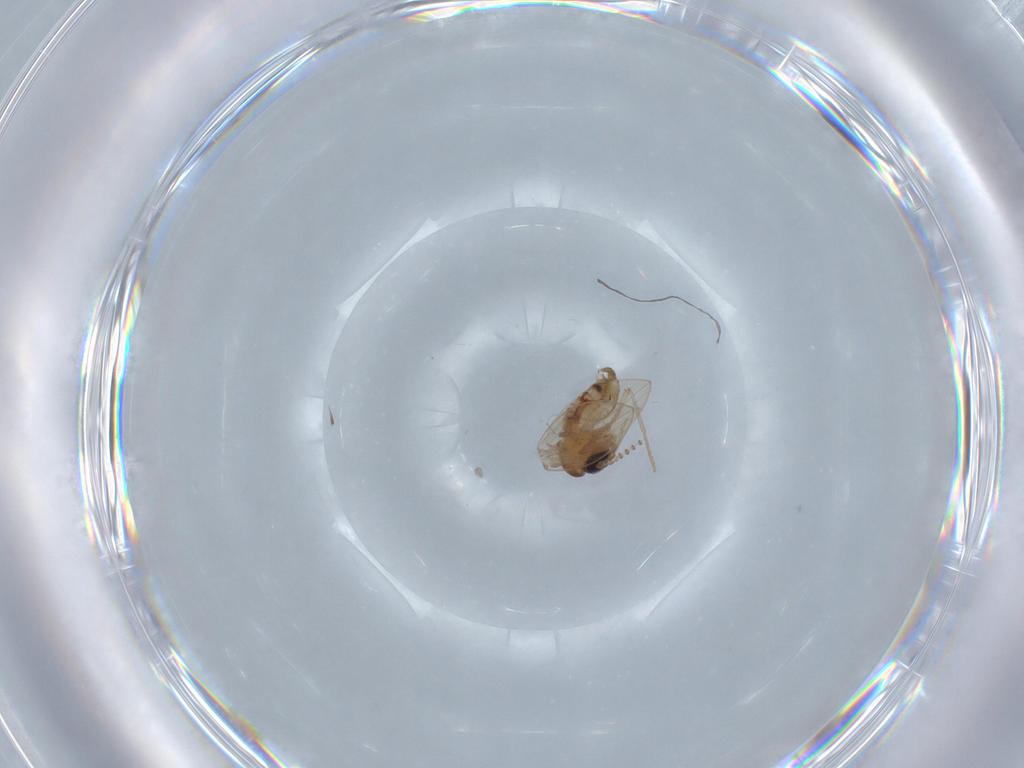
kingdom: Animalia
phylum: Arthropoda
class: Insecta
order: Diptera
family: Psychodidae
